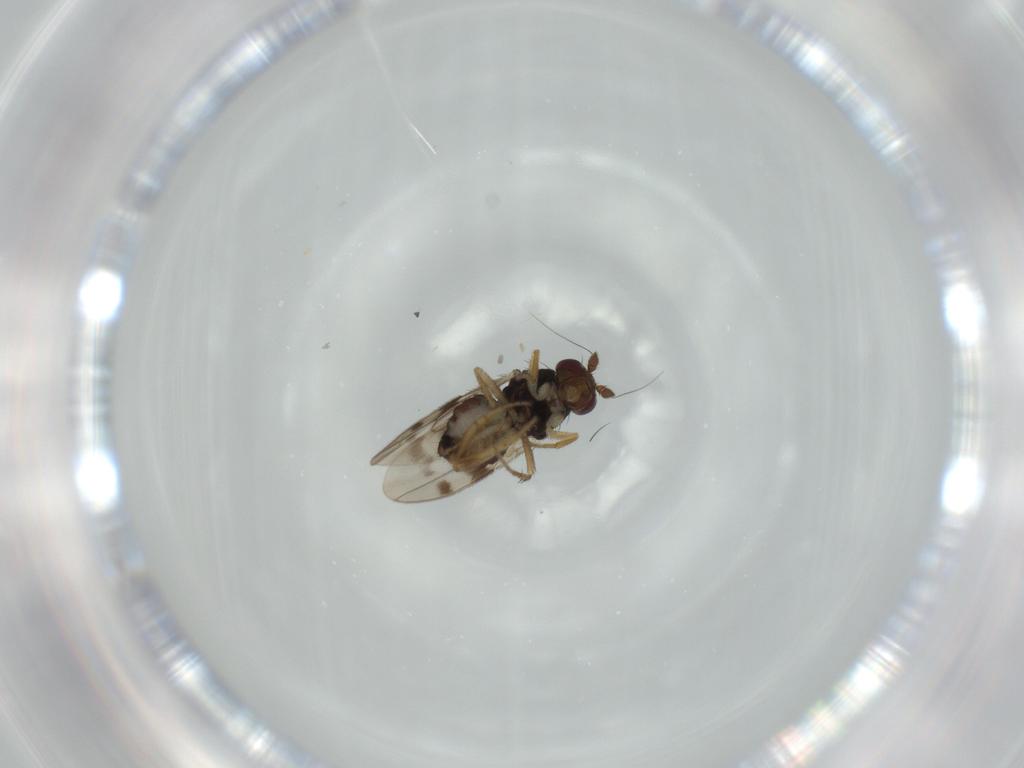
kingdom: Animalia
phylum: Arthropoda
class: Insecta
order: Diptera
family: Sphaeroceridae
